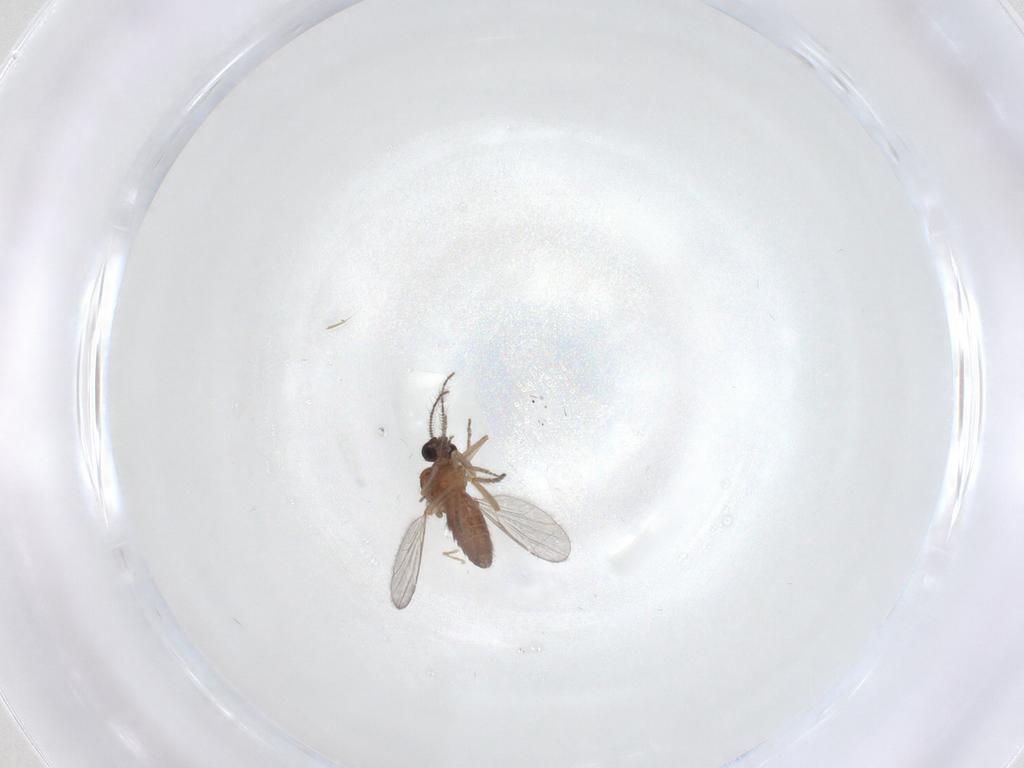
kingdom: Animalia
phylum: Arthropoda
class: Insecta
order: Diptera
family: Ceratopogonidae
